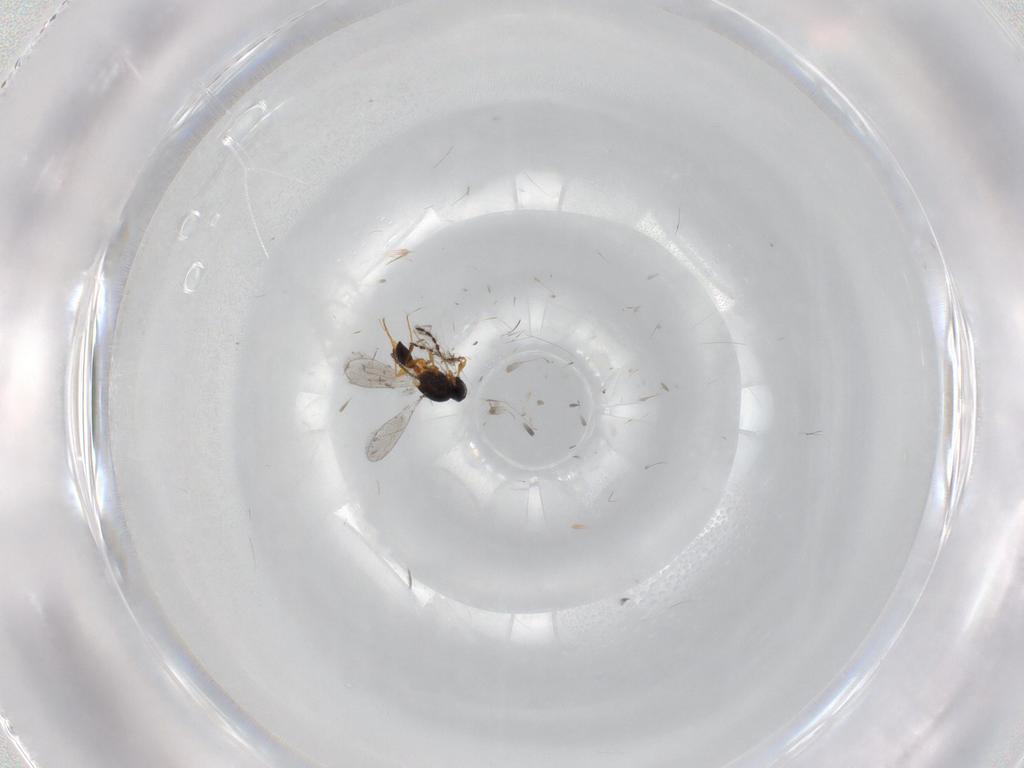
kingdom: Animalia
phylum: Arthropoda
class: Insecta
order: Hymenoptera
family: Platygastridae
